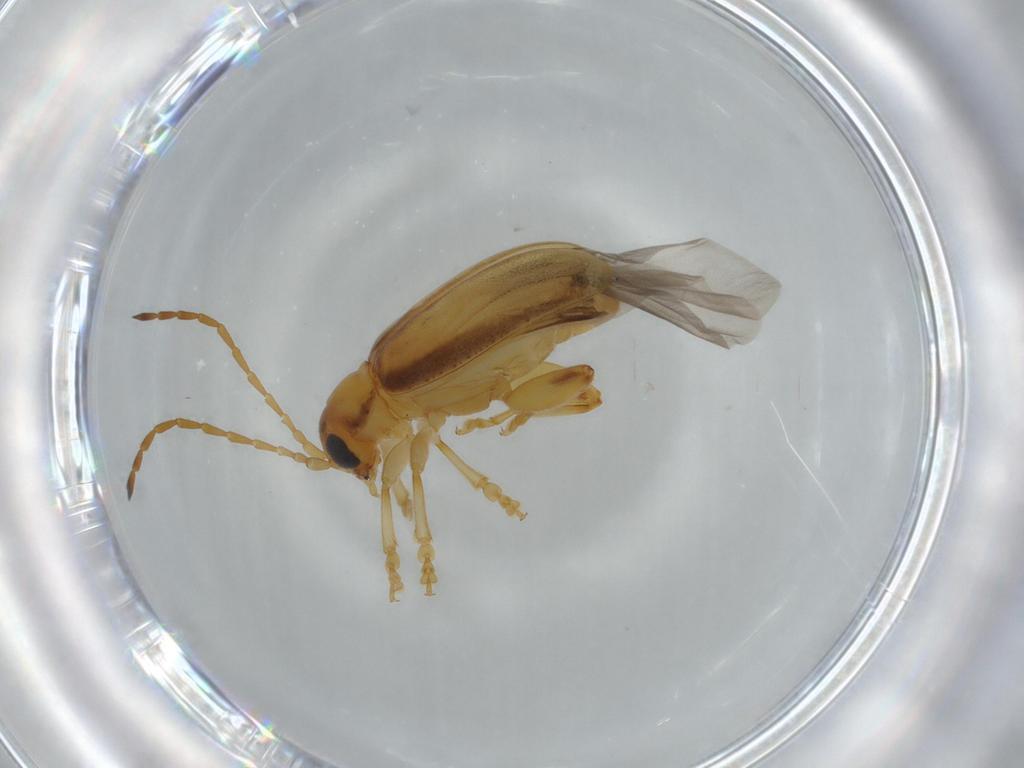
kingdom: Animalia
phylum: Arthropoda
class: Insecta
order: Coleoptera
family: Chrysomelidae
